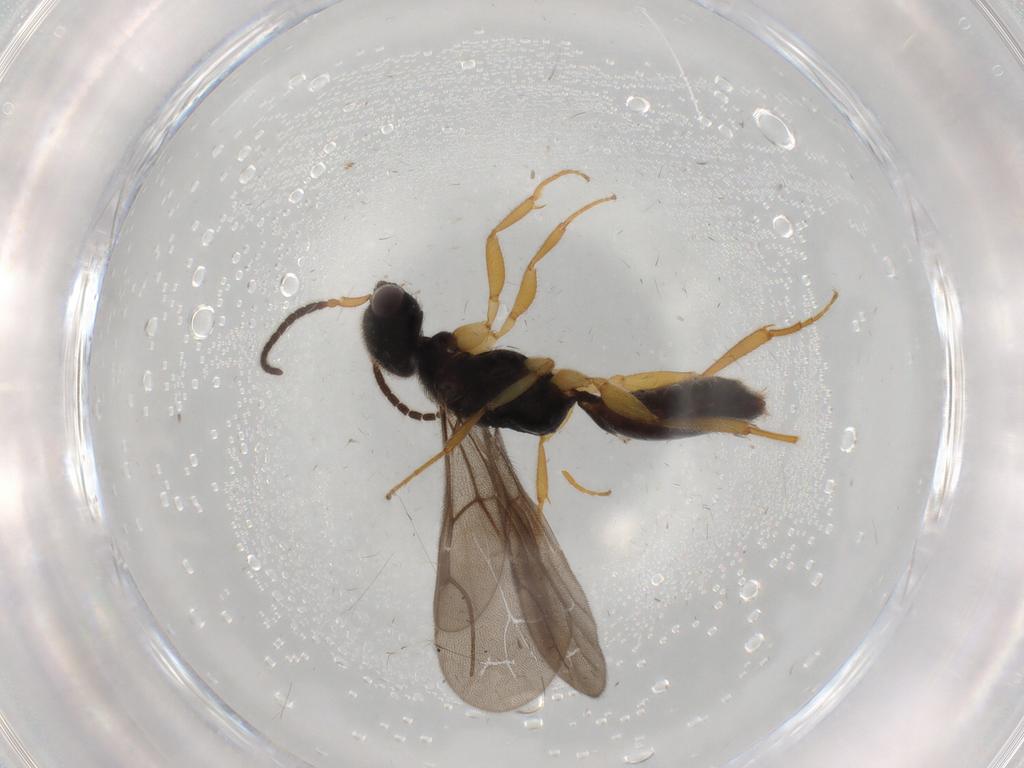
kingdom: Animalia
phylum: Arthropoda
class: Insecta
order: Hymenoptera
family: Bethylidae
